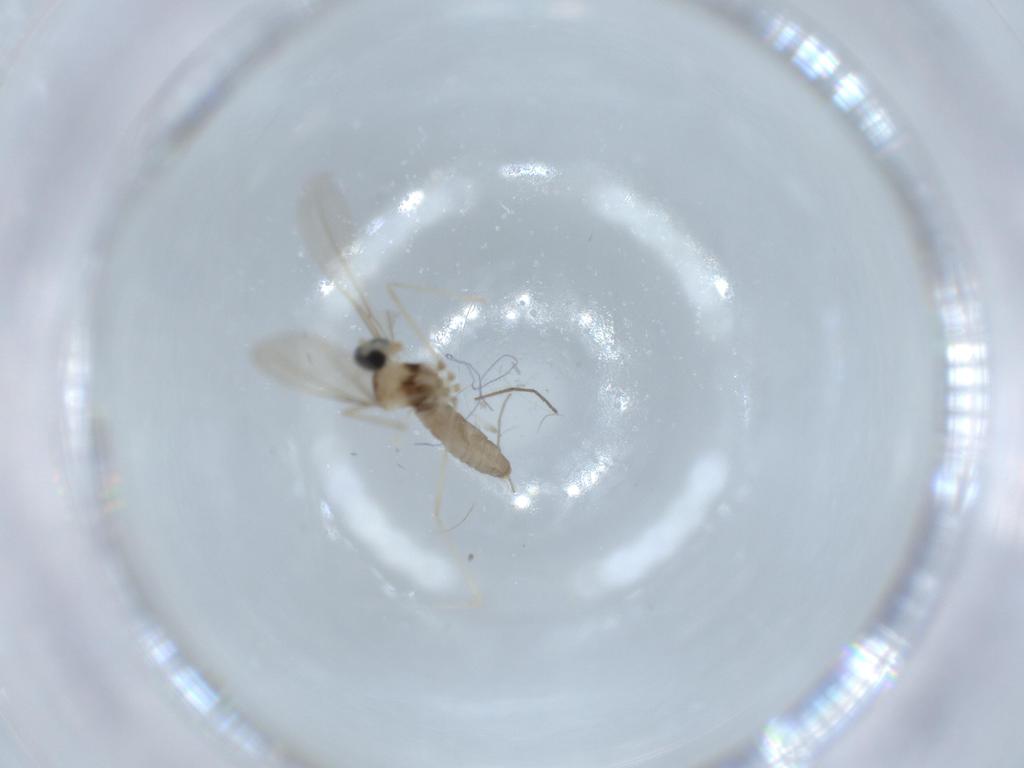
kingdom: Animalia
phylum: Arthropoda
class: Insecta
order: Diptera
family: Cecidomyiidae
